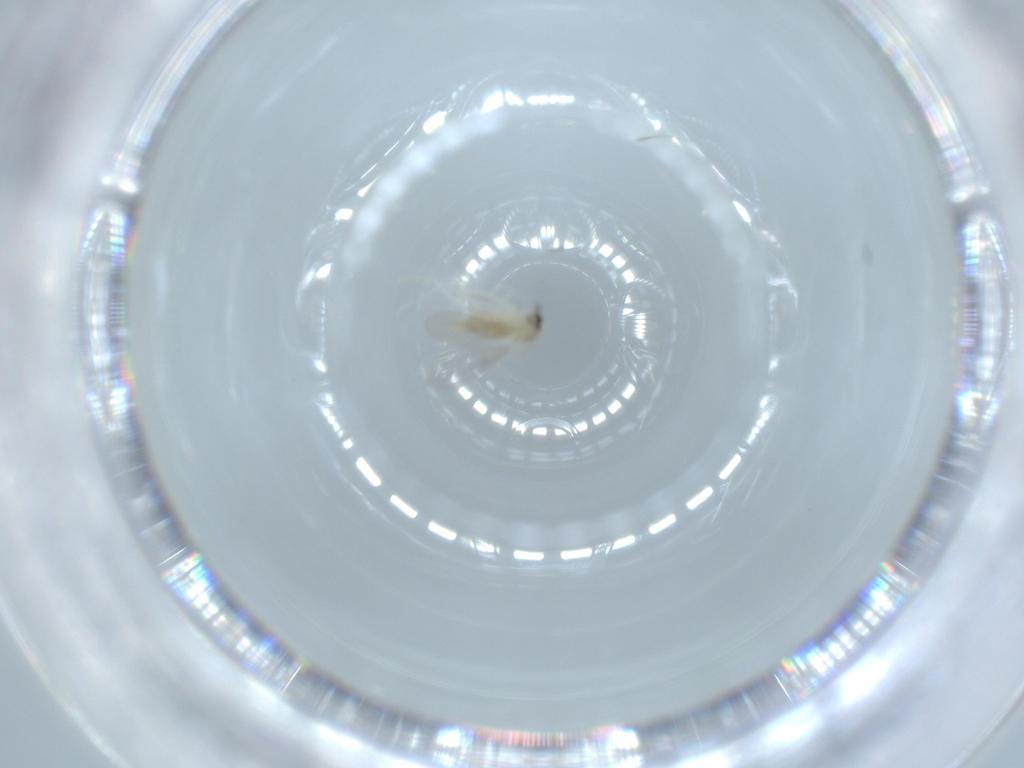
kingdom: Animalia
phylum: Arthropoda
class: Insecta
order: Diptera
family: Cecidomyiidae
